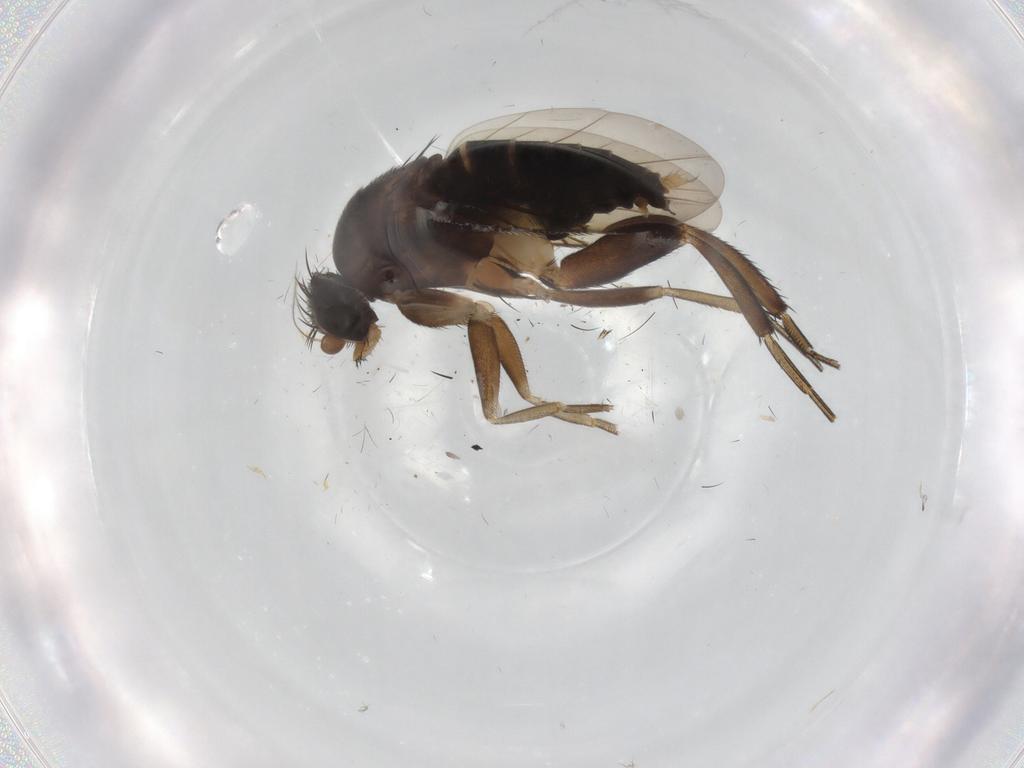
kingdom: Animalia
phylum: Arthropoda
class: Insecta
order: Diptera
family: Phoridae
